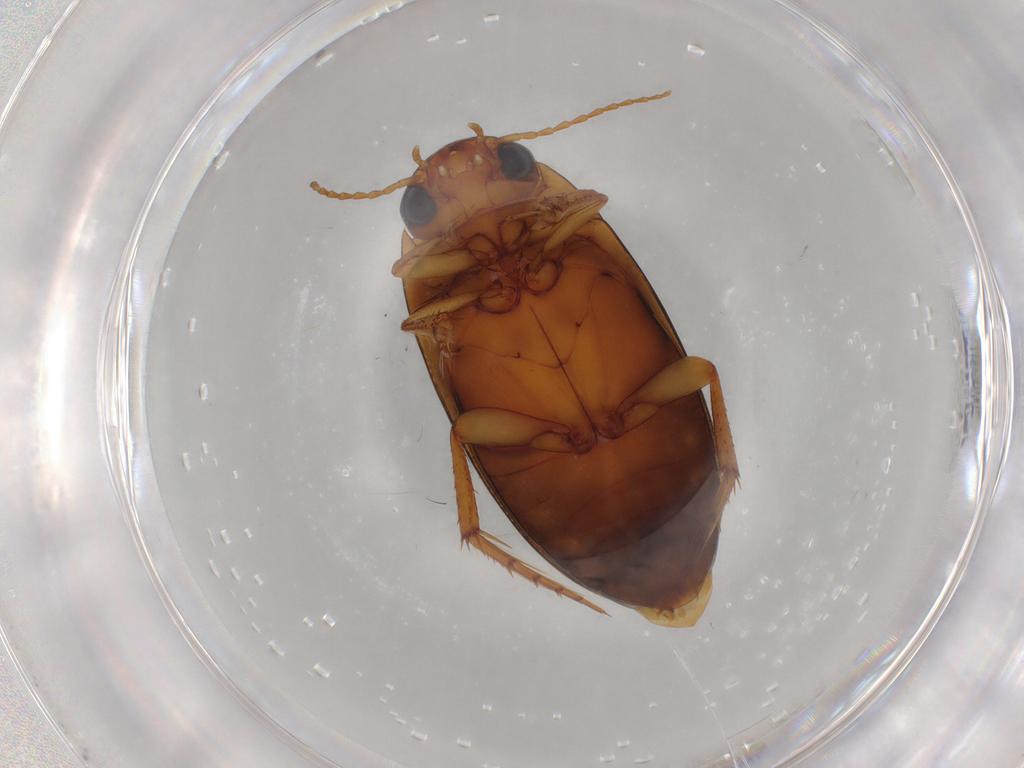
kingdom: Animalia
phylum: Arthropoda
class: Insecta
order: Coleoptera
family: Dytiscidae
